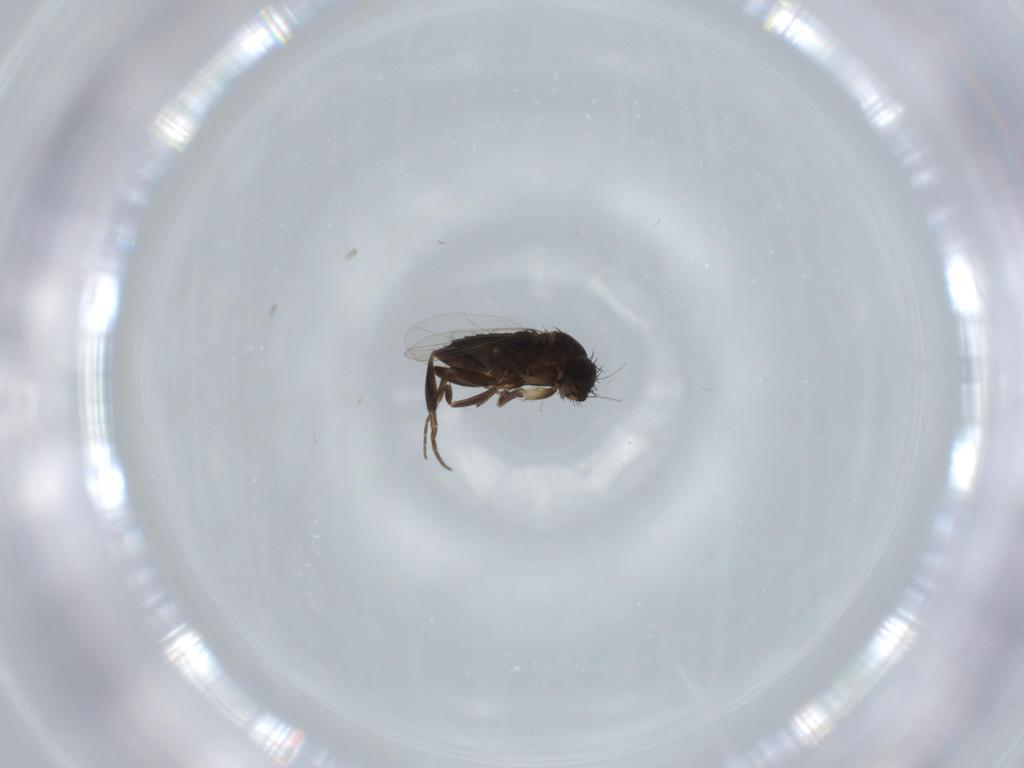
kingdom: Animalia
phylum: Arthropoda
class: Insecta
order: Diptera
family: Phoridae
